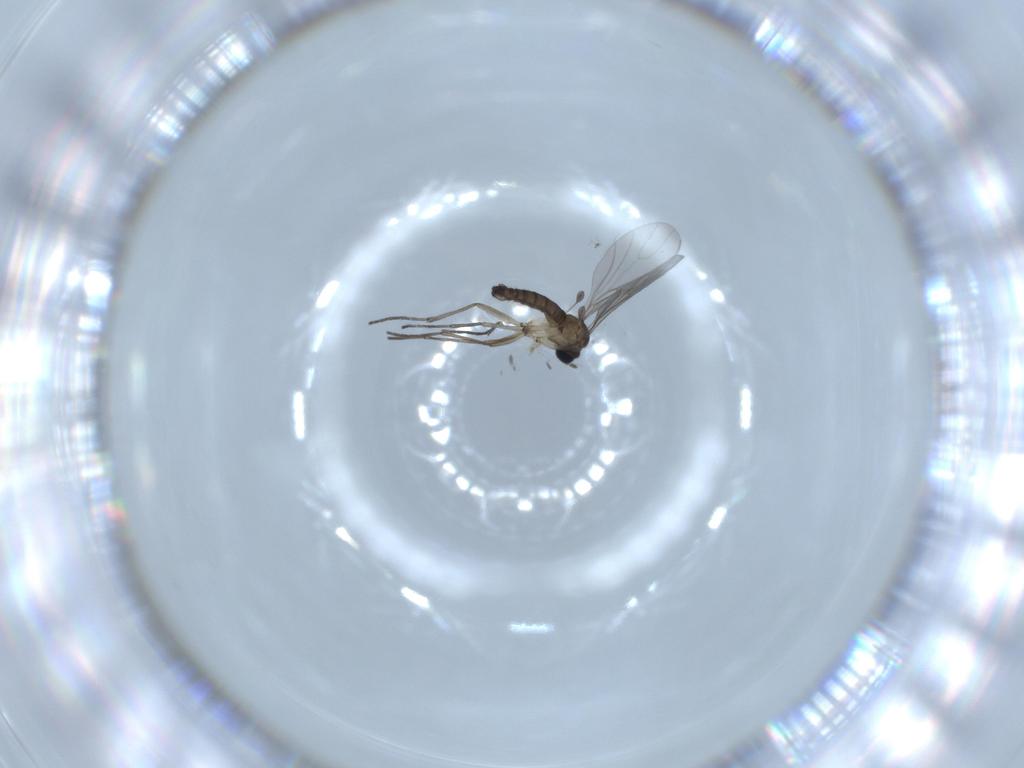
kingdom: Animalia
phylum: Arthropoda
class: Insecta
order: Diptera
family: Sciaridae
